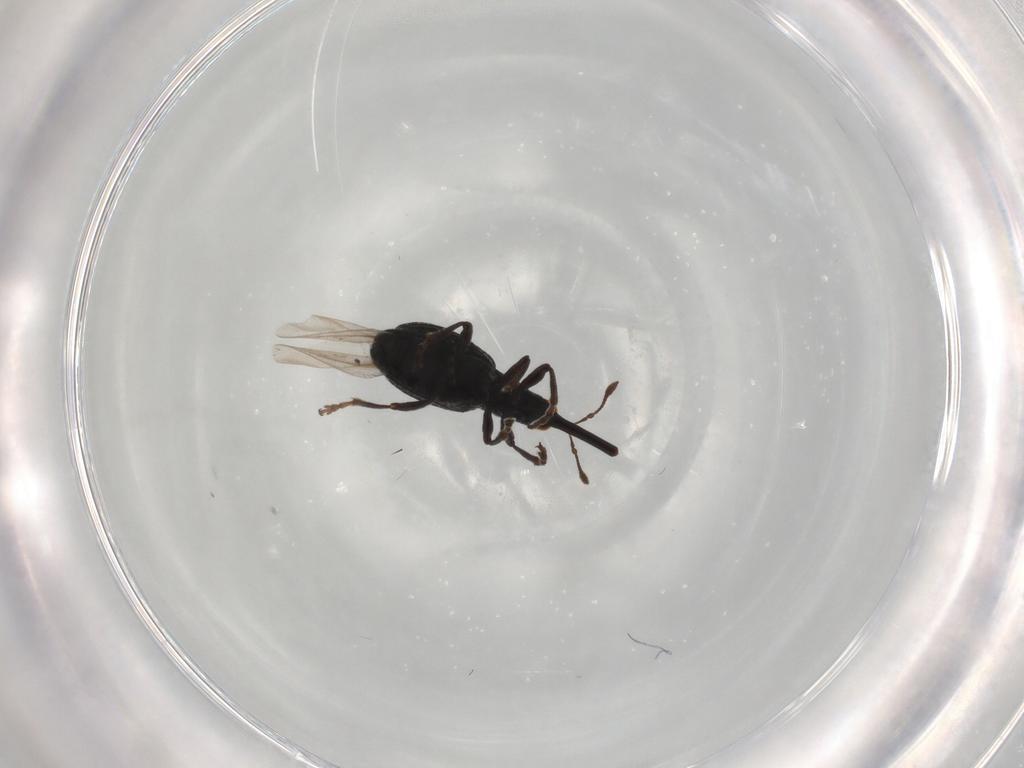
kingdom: Animalia
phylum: Arthropoda
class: Insecta
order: Coleoptera
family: Brentidae
